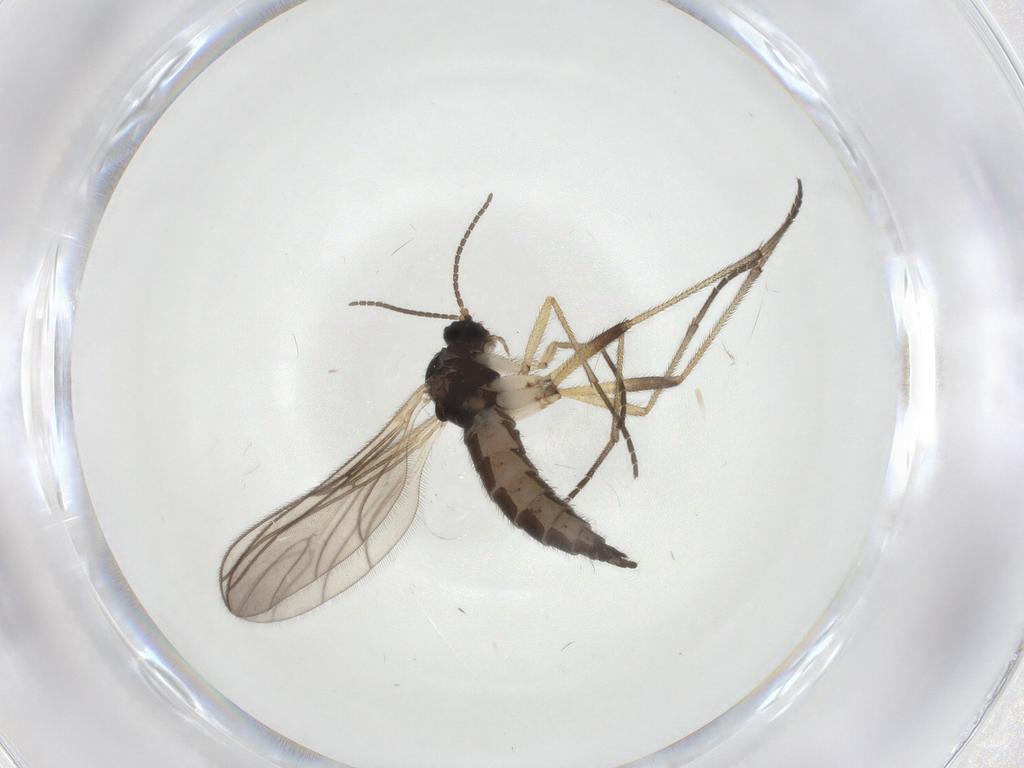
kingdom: Animalia
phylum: Arthropoda
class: Insecta
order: Diptera
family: Sciaridae
